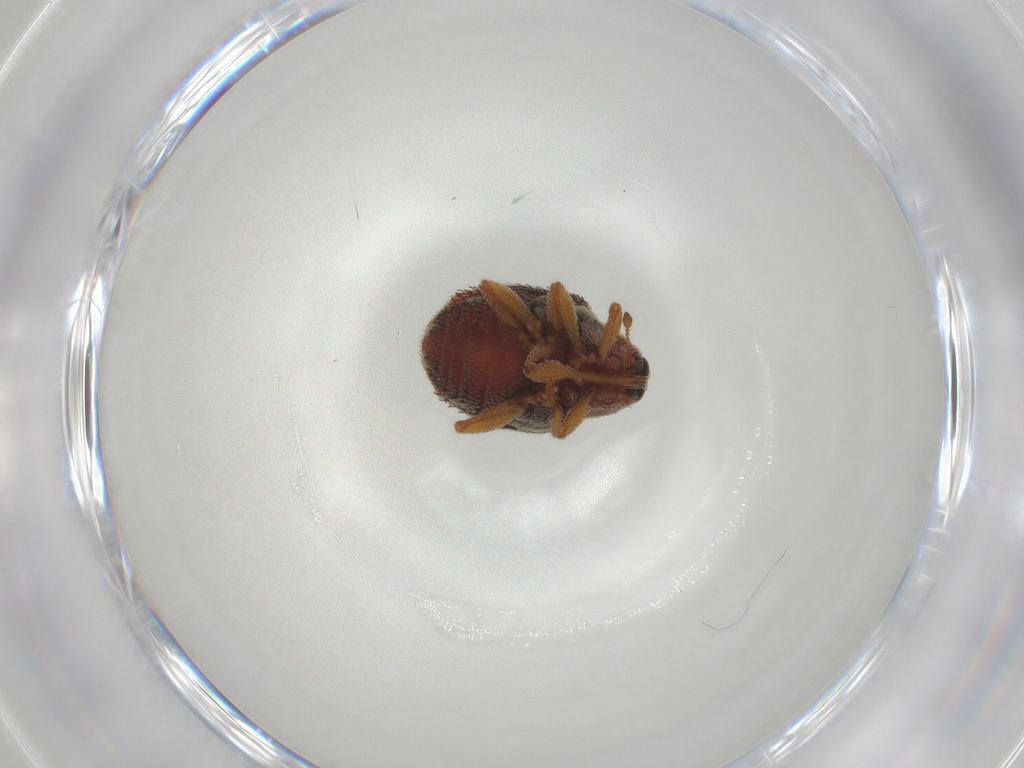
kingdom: Animalia
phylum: Arthropoda
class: Insecta
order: Coleoptera
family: Curculionidae
